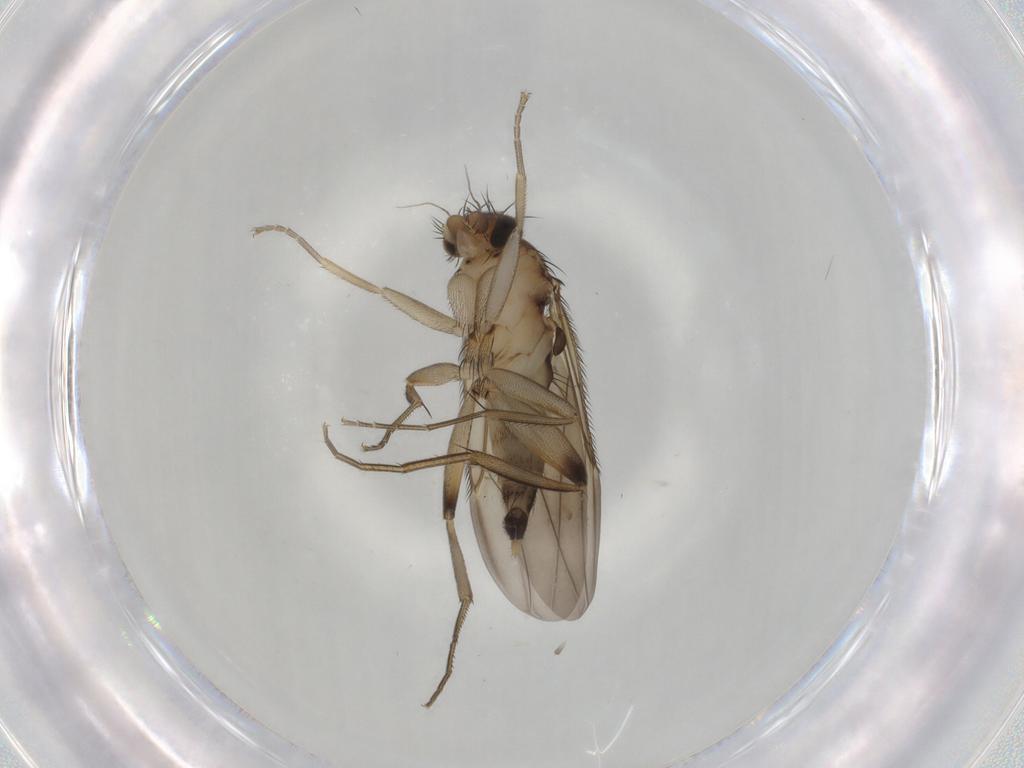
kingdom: Animalia
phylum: Arthropoda
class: Insecta
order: Diptera
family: Phoridae
